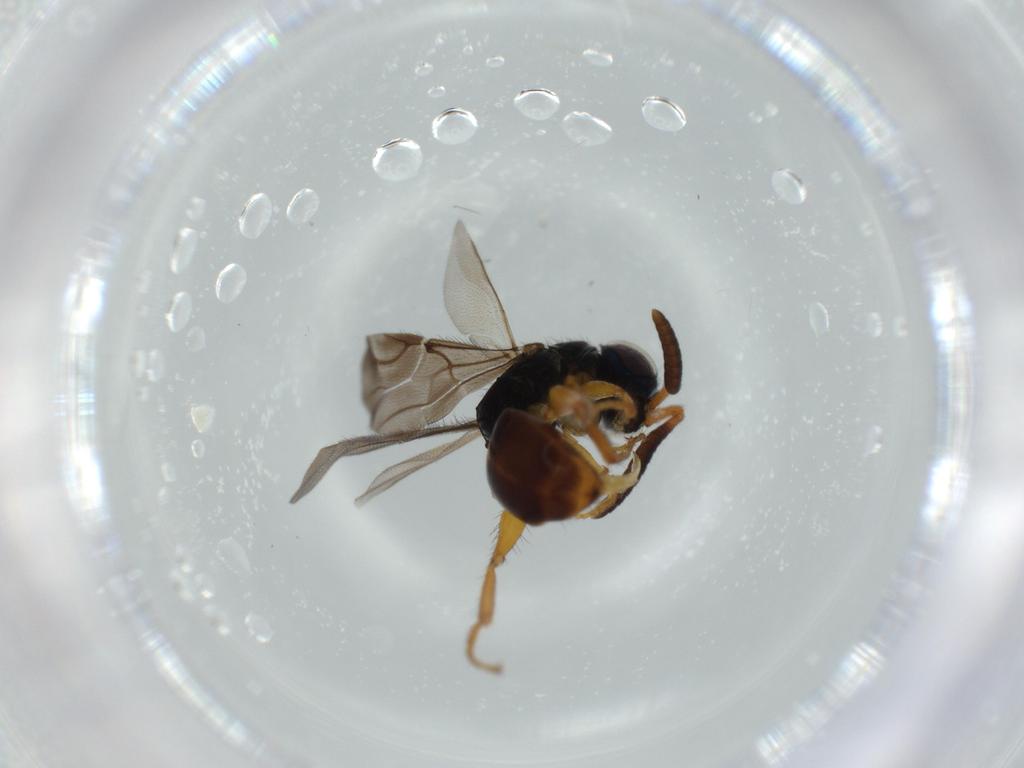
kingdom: Animalia
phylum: Arthropoda
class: Insecta
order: Hymenoptera
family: Chrysididae
